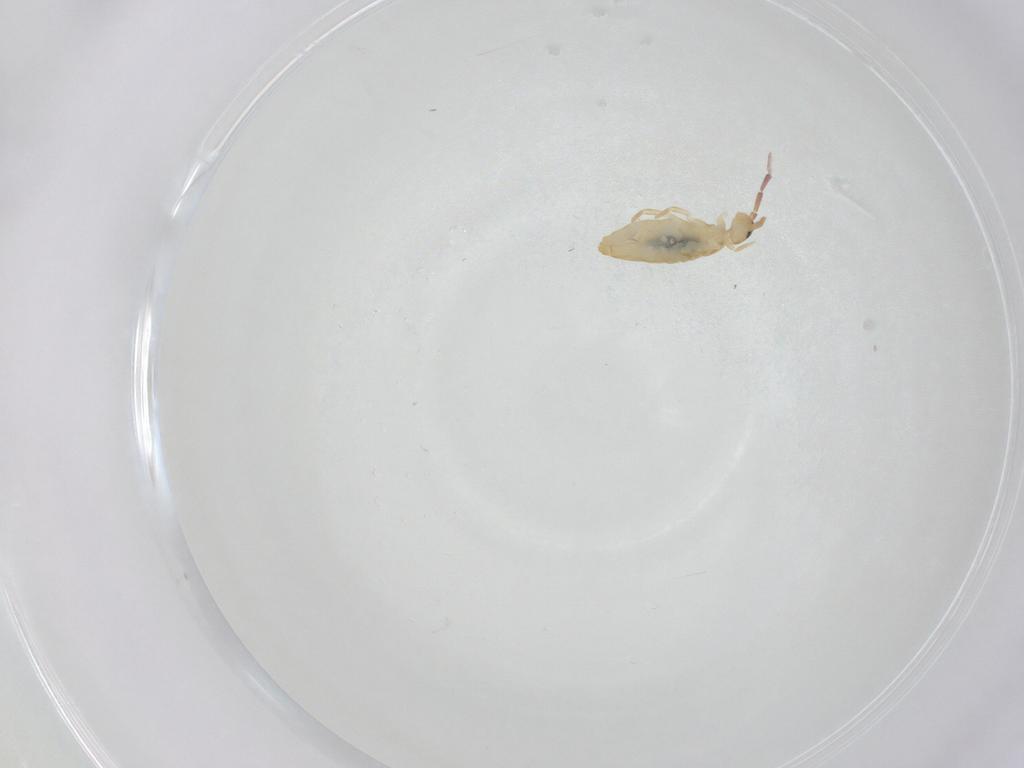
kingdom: Animalia
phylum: Arthropoda
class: Collembola
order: Entomobryomorpha
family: Entomobryidae
